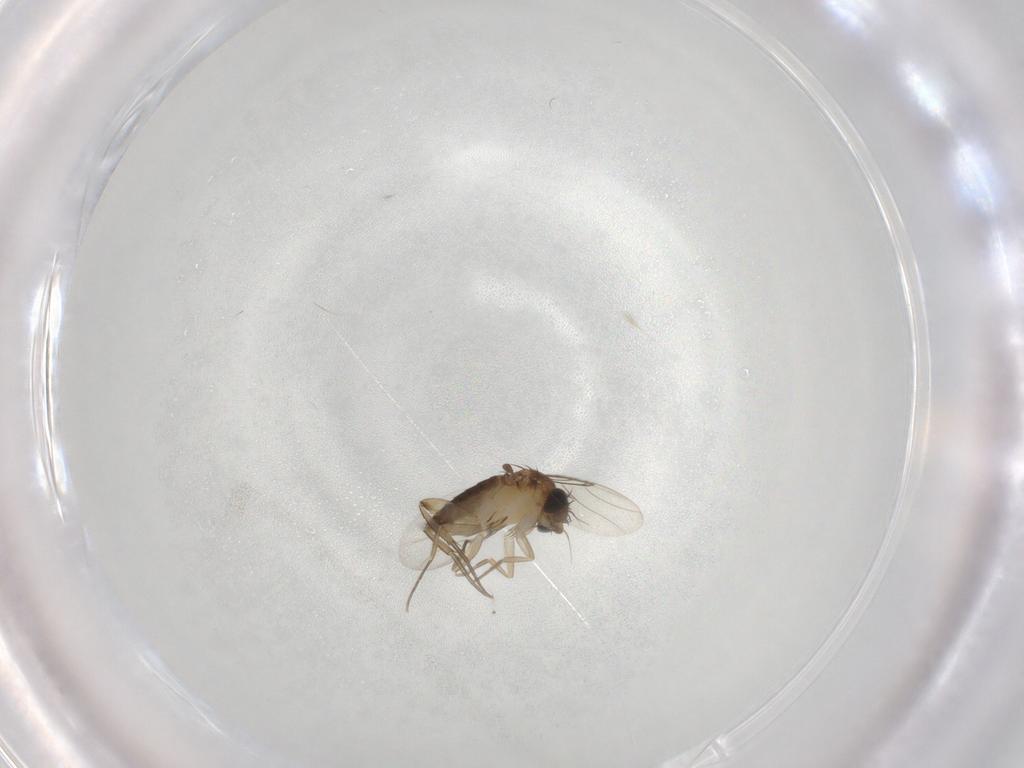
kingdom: Animalia
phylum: Arthropoda
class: Insecta
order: Diptera
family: Phoridae
